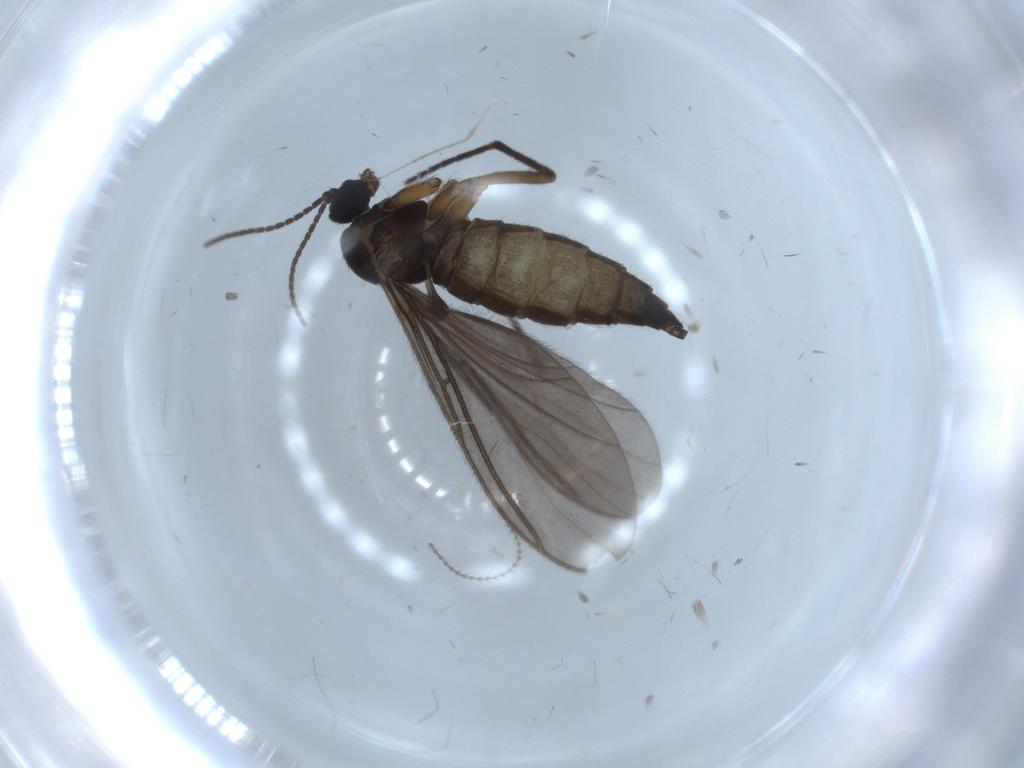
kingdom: Animalia
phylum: Arthropoda
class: Insecta
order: Diptera
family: Sciaridae
